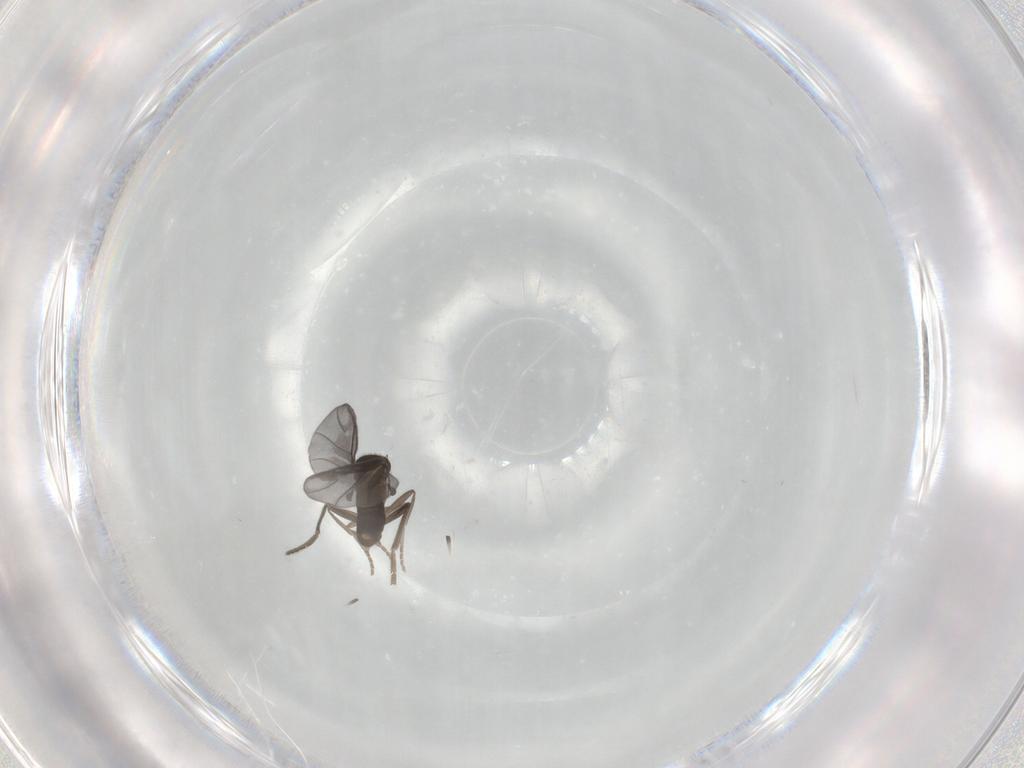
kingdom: Animalia
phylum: Arthropoda
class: Insecta
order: Diptera
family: Phoridae
